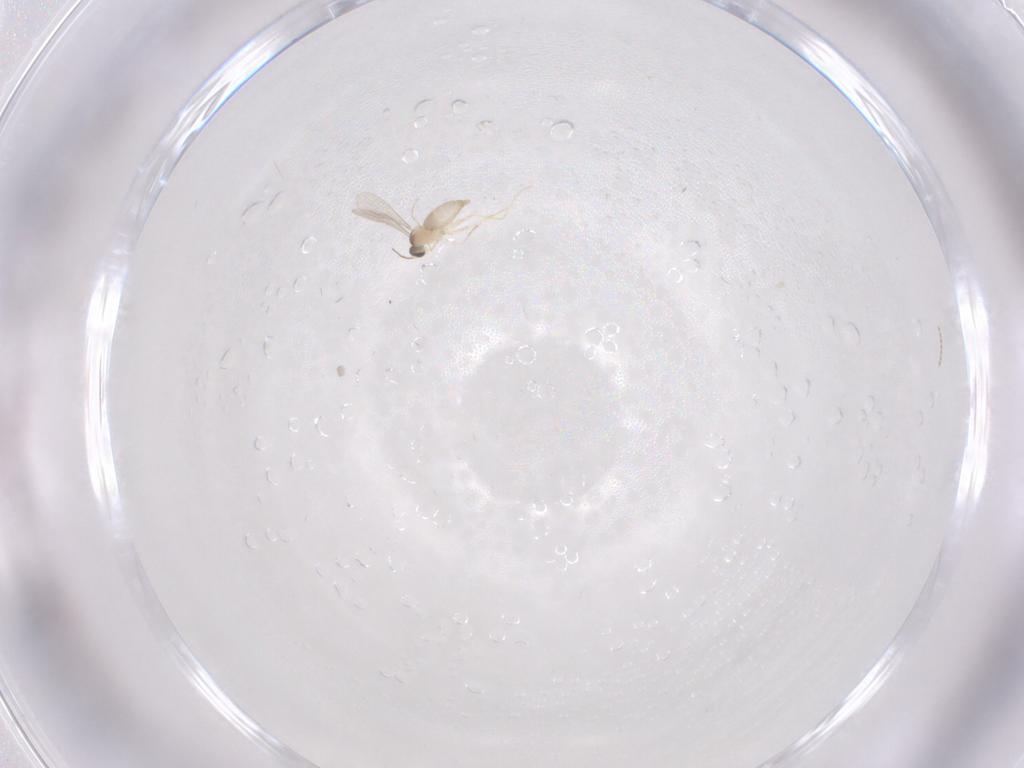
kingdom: Animalia
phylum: Arthropoda
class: Insecta
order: Diptera
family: Cecidomyiidae
